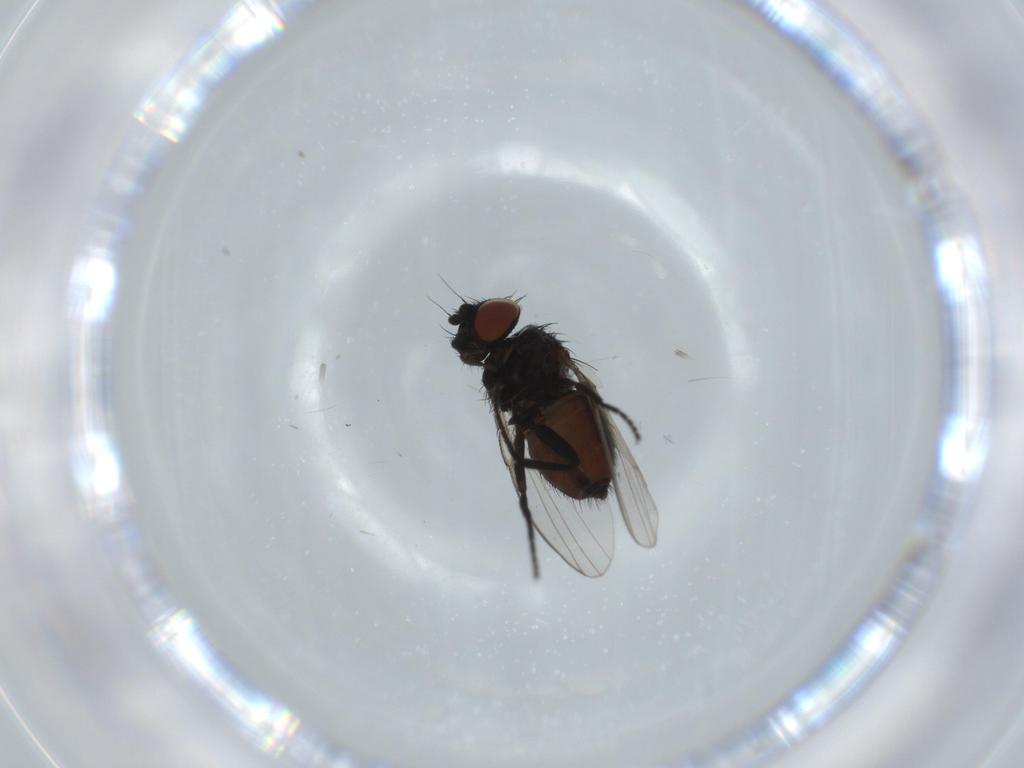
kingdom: Animalia
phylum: Arthropoda
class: Insecta
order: Diptera
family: Milichiidae
